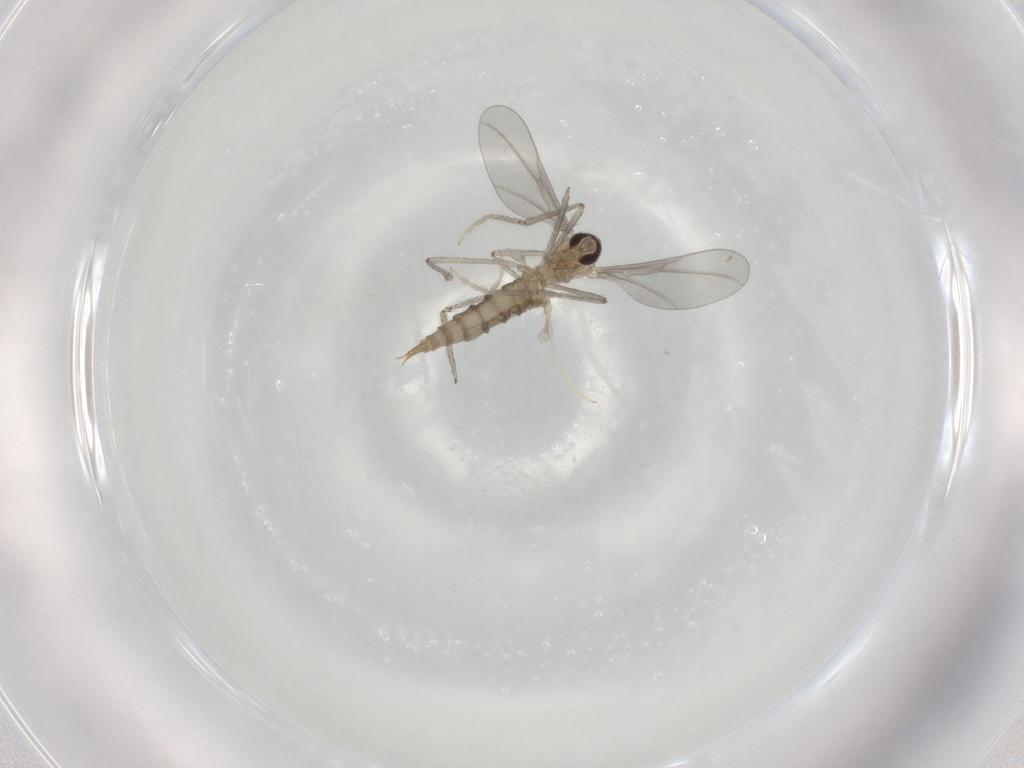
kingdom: Animalia
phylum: Arthropoda
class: Insecta
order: Diptera
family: Cecidomyiidae
